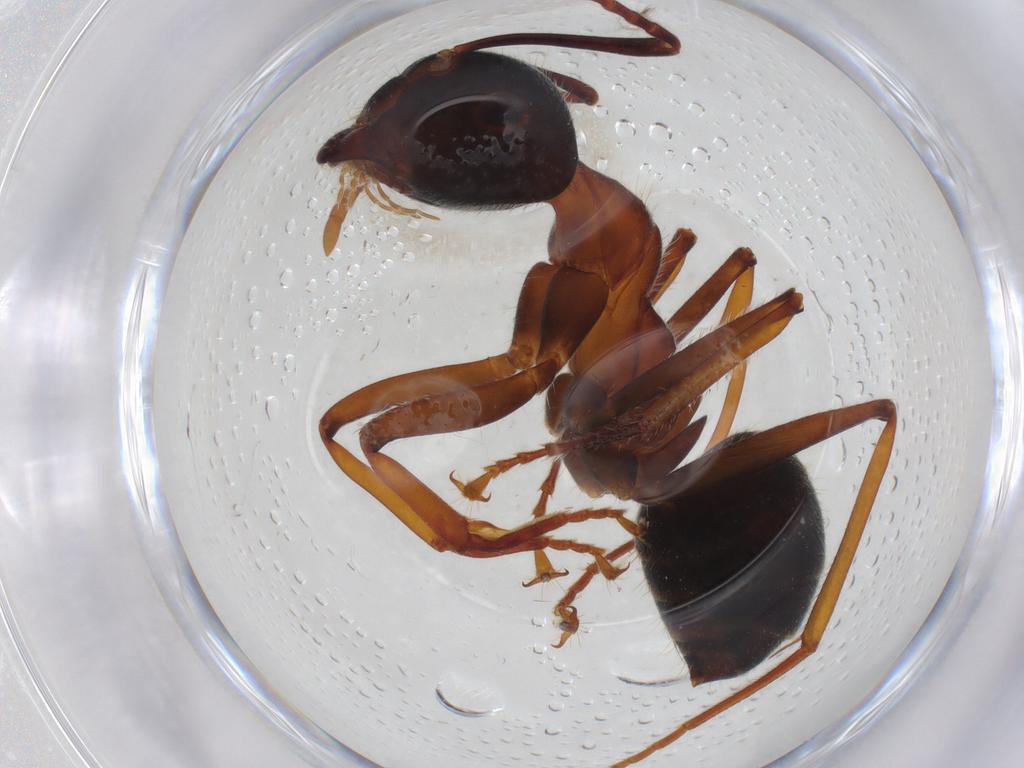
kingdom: Animalia
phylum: Arthropoda
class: Insecta
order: Hymenoptera
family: Formicidae
